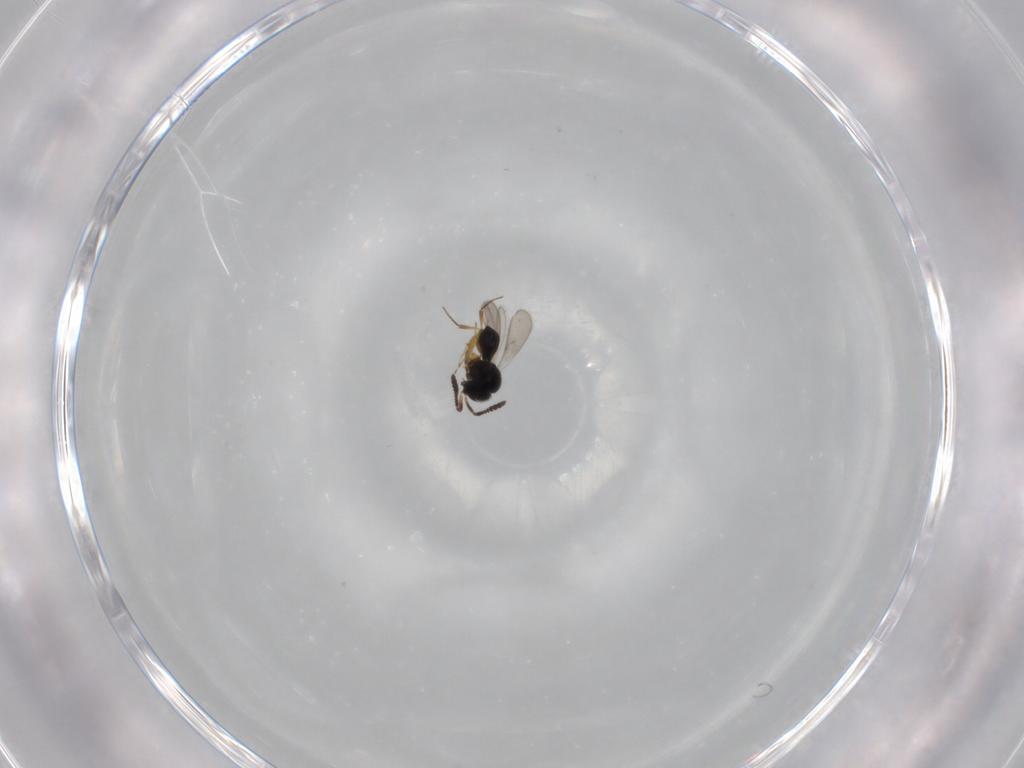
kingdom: Animalia
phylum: Arthropoda
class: Insecta
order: Hymenoptera
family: Scelionidae
